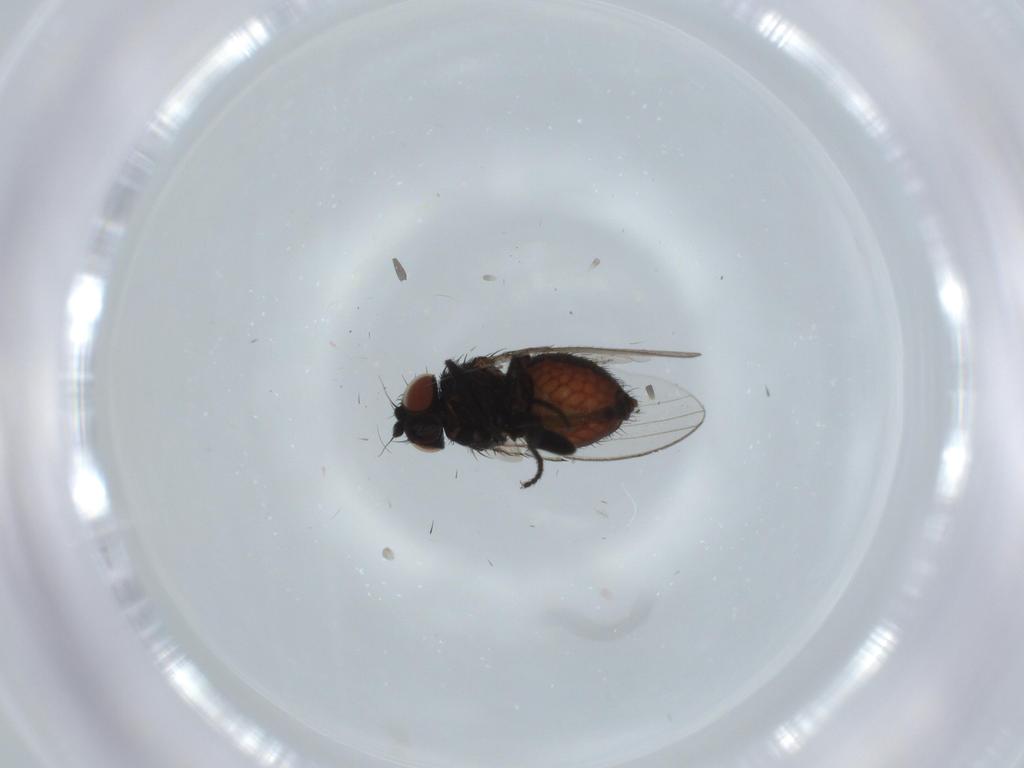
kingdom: Animalia
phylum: Arthropoda
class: Insecta
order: Diptera
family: Milichiidae
